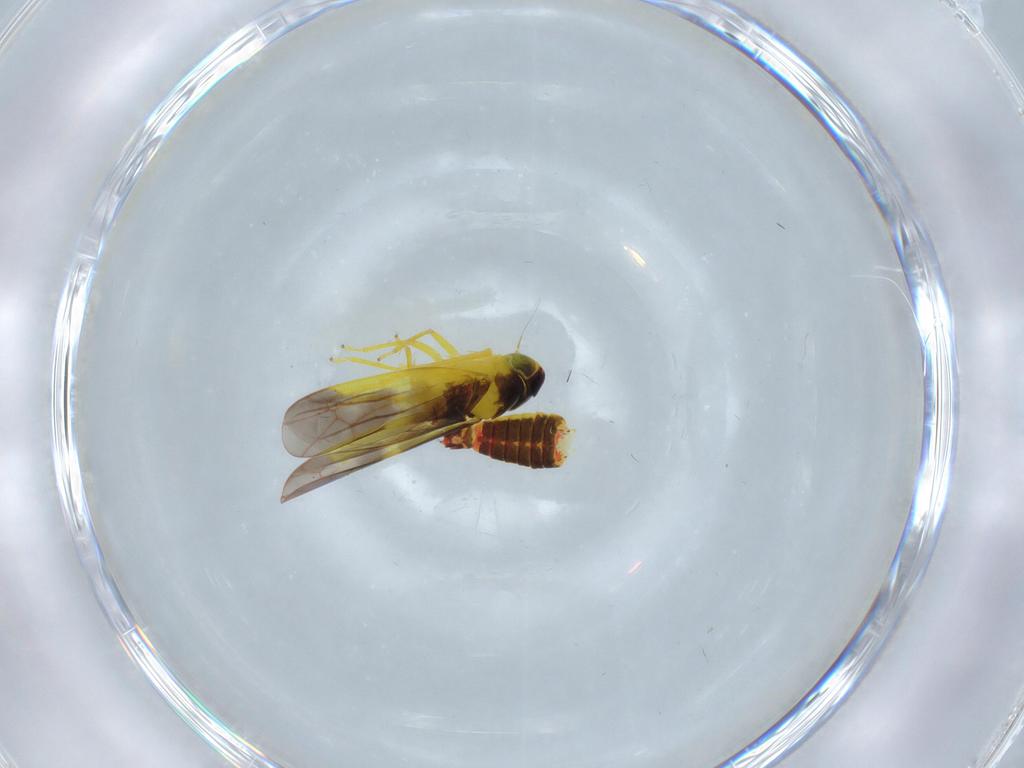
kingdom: Animalia
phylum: Arthropoda
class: Insecta
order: Hemiptera
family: Cicadellidae
